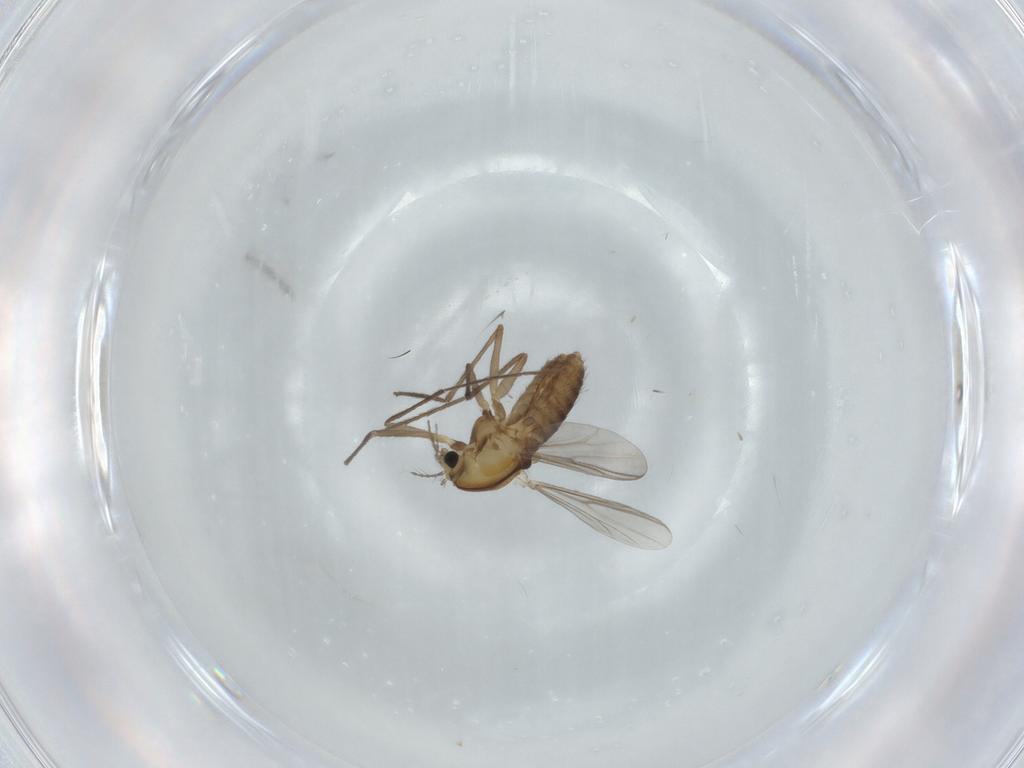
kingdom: Animalia
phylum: Arthropoda
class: Insecta
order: Diptera
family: Chironomidae
